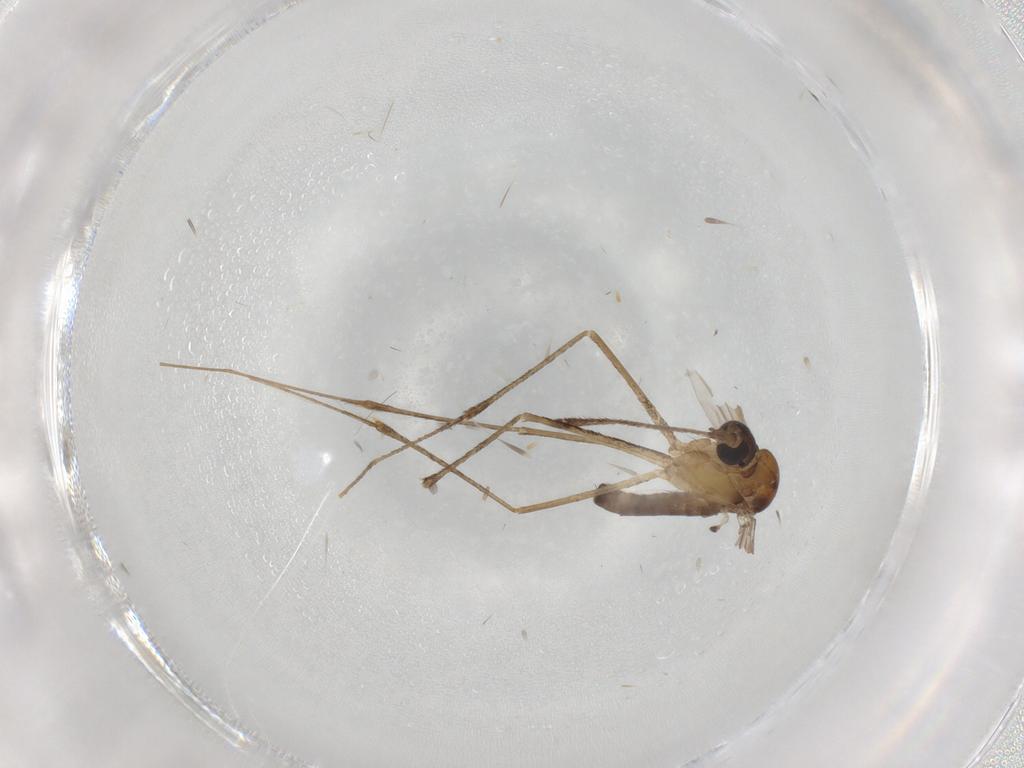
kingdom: Animalia
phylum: Arthropoda
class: Insecta
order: Diptera
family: Culicidae
